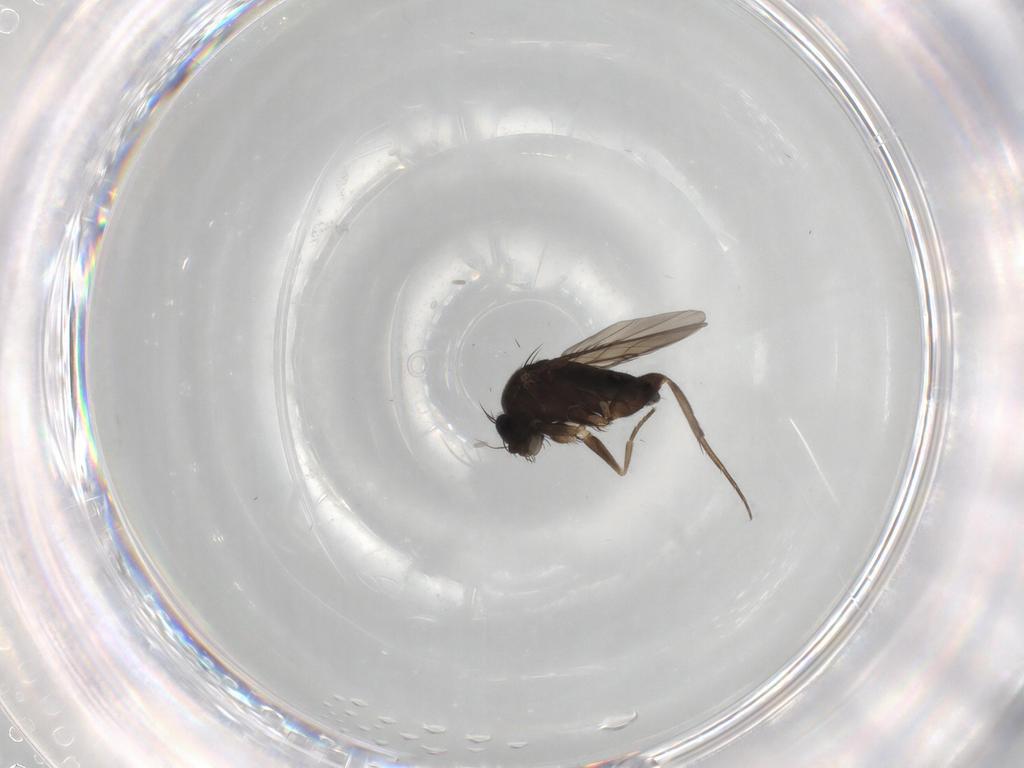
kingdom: Animalia
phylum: Arthropoda
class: Insecta
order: Diptera
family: Phoridae
